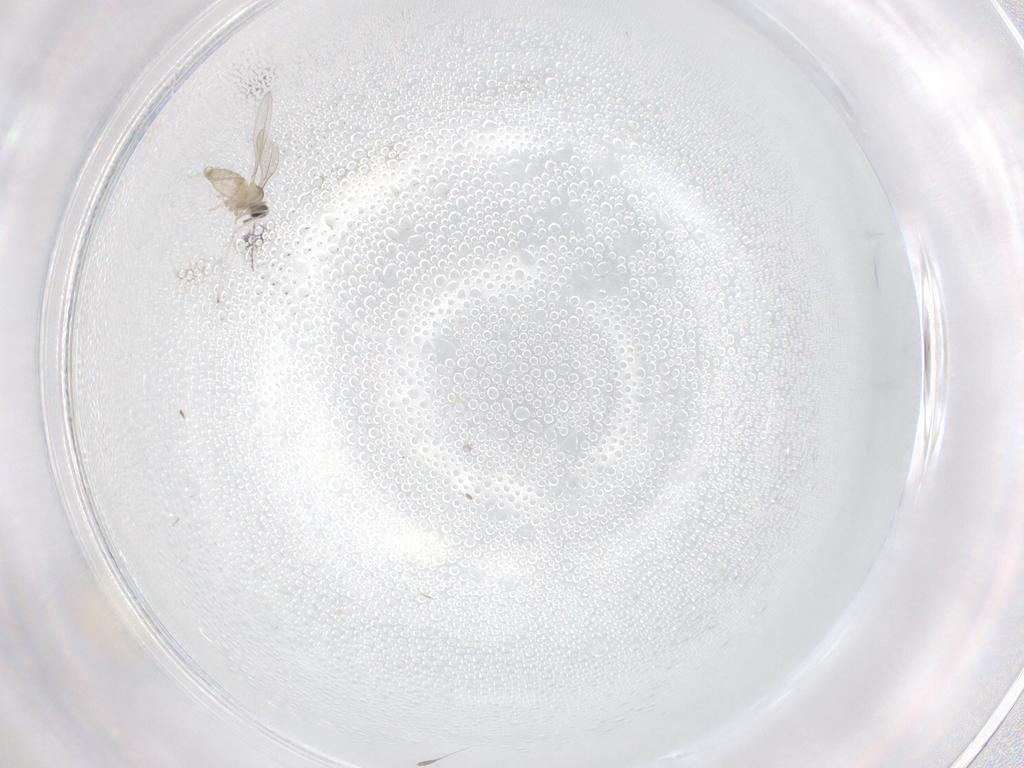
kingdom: Animalia
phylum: Arthropoda
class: Insecta
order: Diptera
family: Cecidomyiidae
